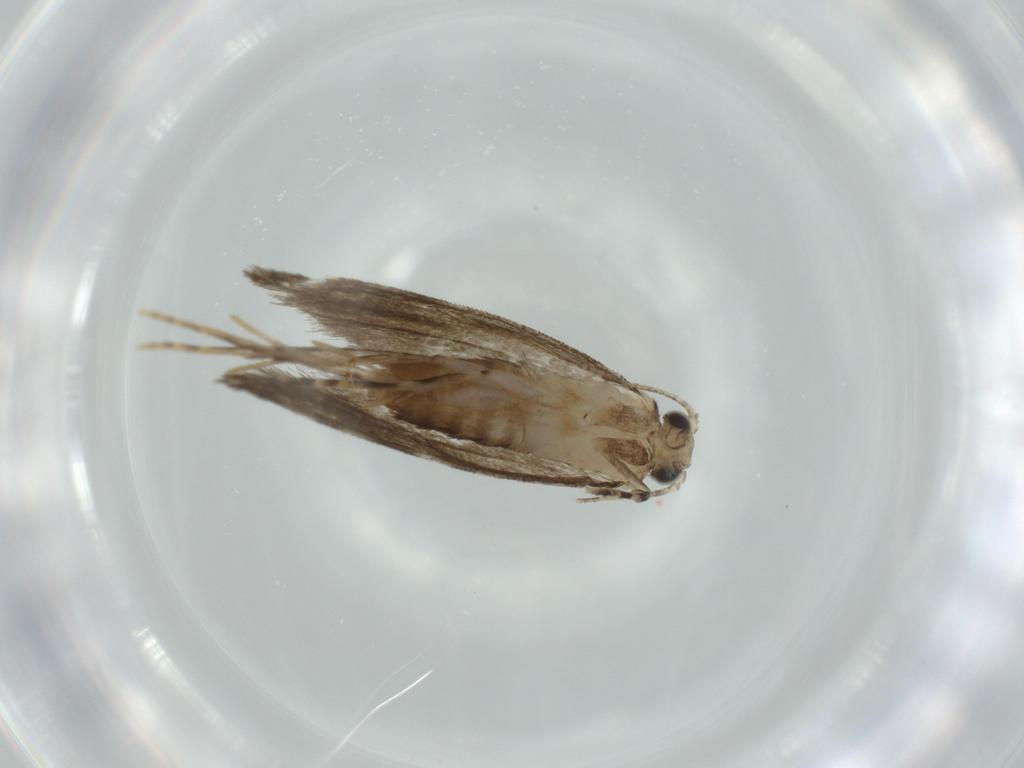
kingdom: Animalia
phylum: Arthropoda
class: Insecta
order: Lepidoptera
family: Tineidae
